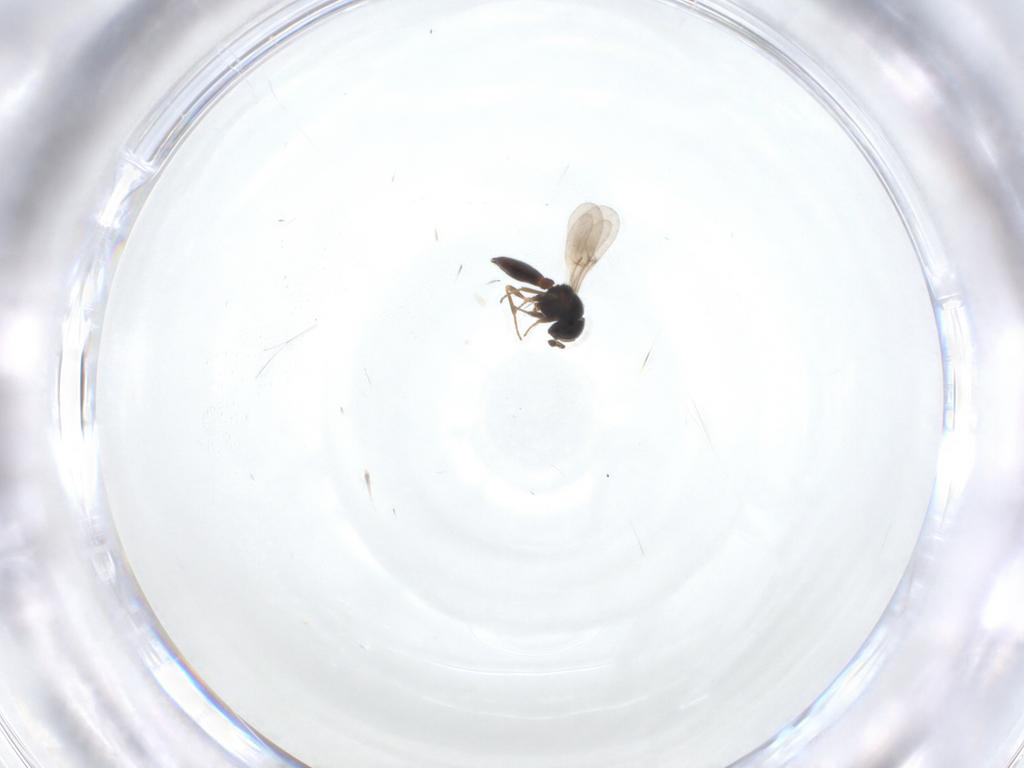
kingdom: Animalia
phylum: Arthropoda
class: Insecta
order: Hymenoptera
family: Scelionidae
